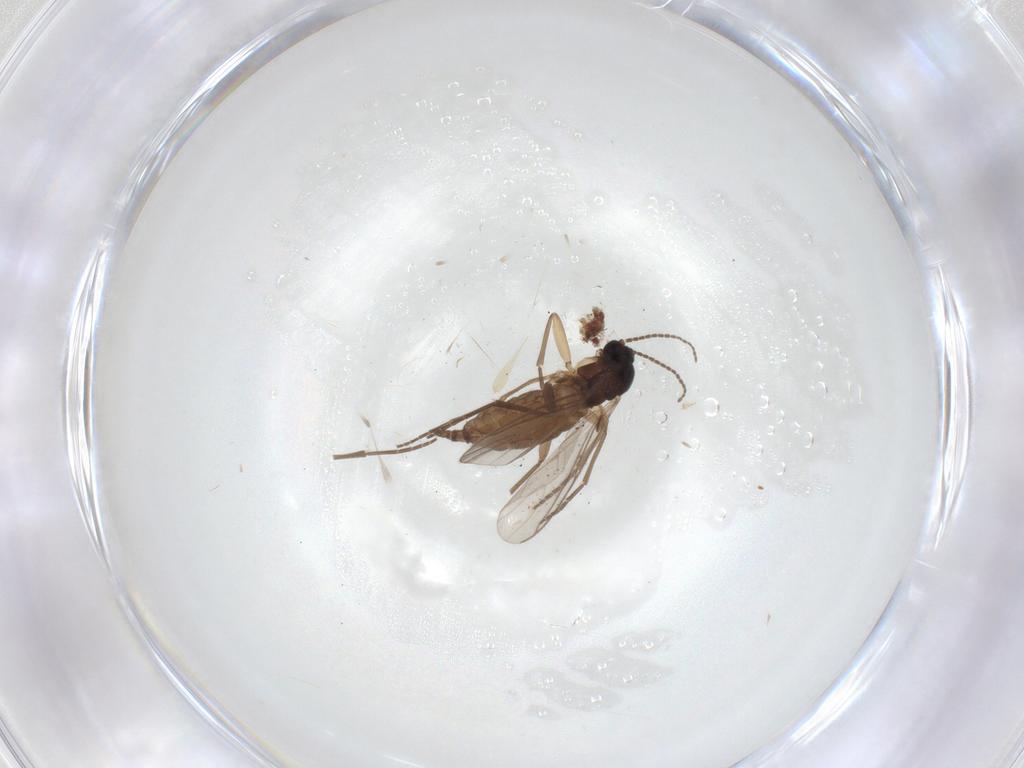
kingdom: Animalia
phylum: Arthropoda
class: Insecta
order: Diptera
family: Sciaridae
